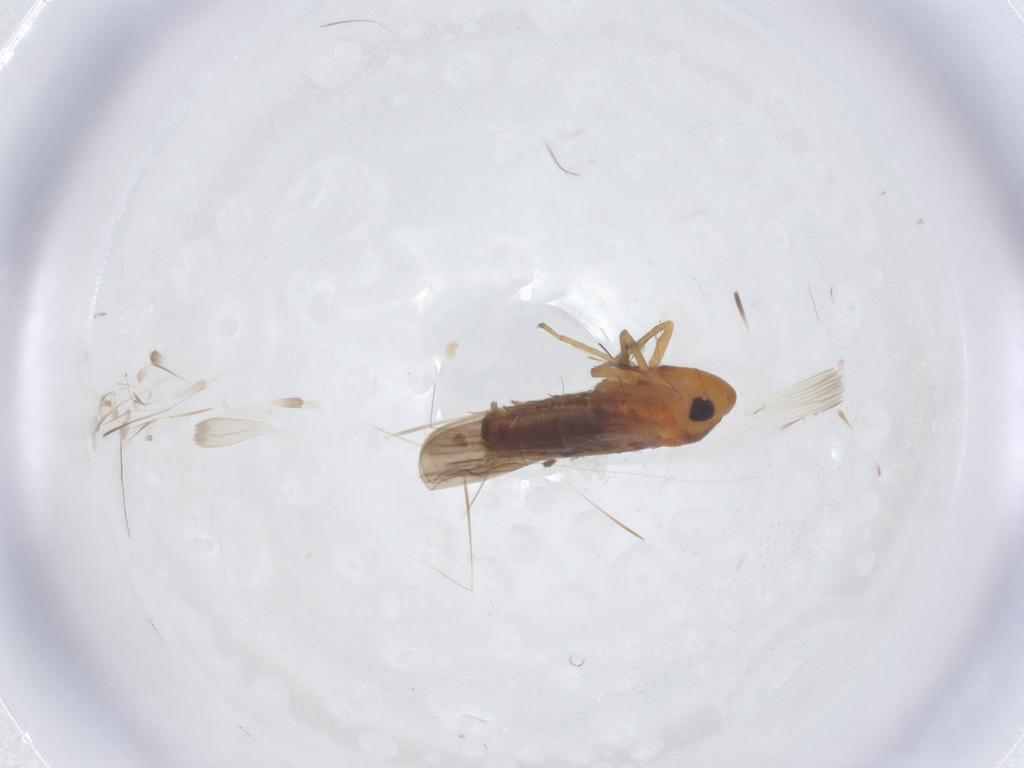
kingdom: Animalia
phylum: Arthropoda
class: Insecta
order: Hemiptera
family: Cicadellidae
